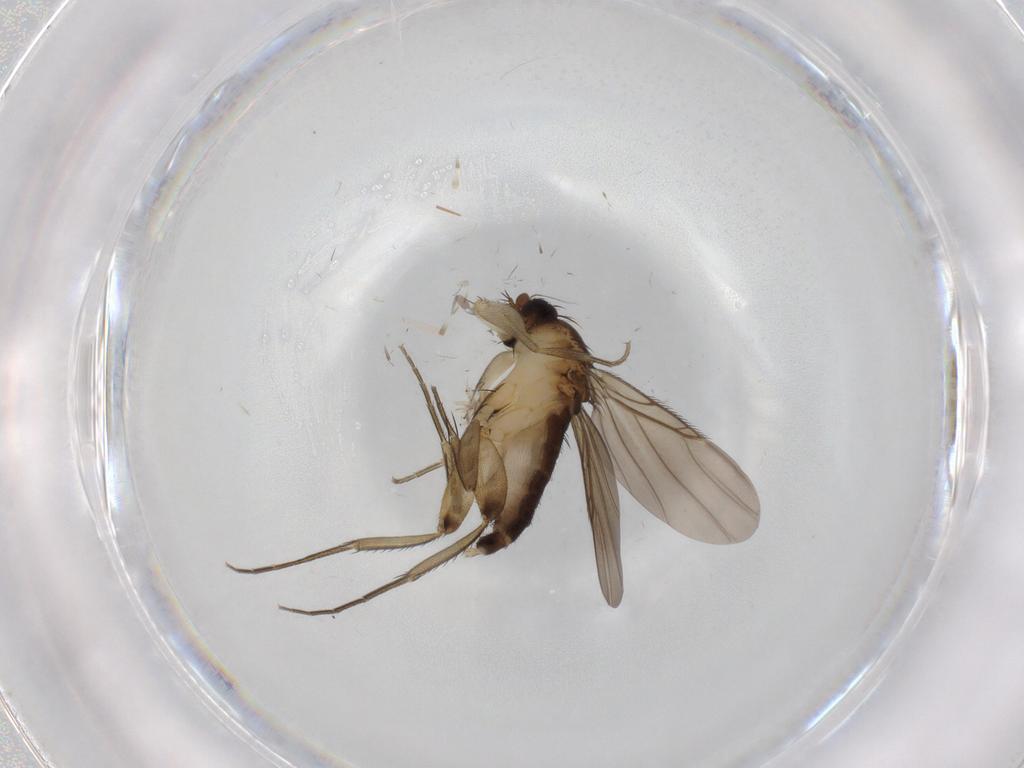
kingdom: Animalia
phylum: Arthropoda
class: Insecta
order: Diptera
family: Phoridae
